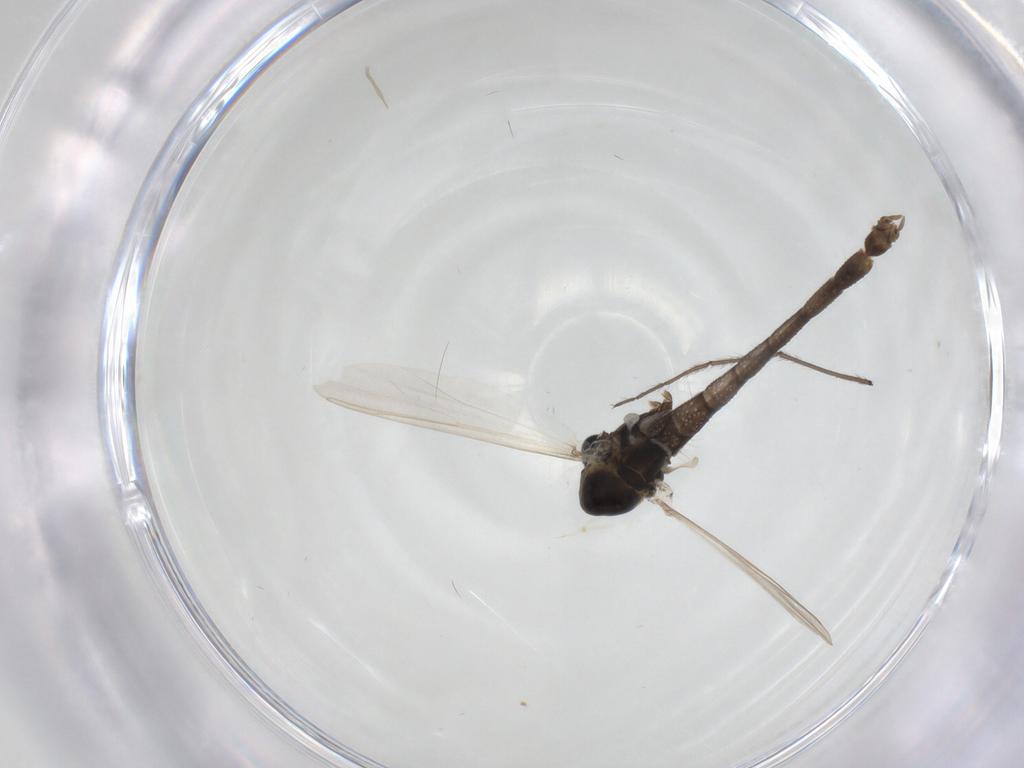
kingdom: Animalia
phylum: Arthropoda
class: Insecta
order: Diptera
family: Chironomidae
